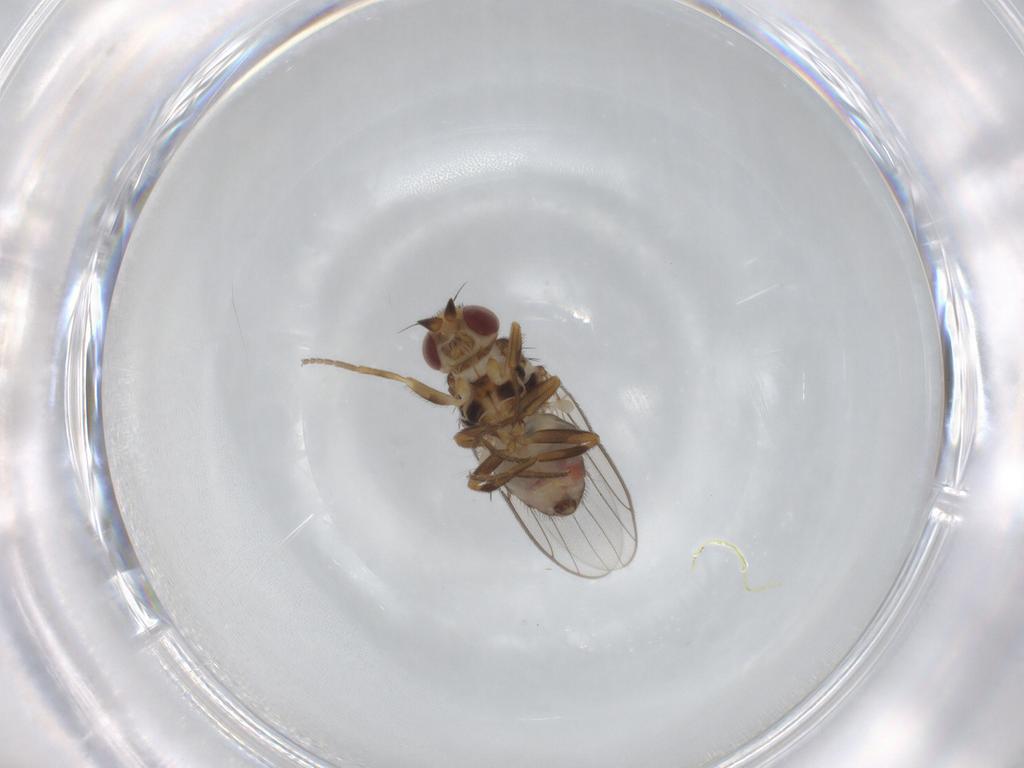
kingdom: Animalia
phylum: Arthropoda
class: Insecta
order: Diptera
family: Chloropidae
